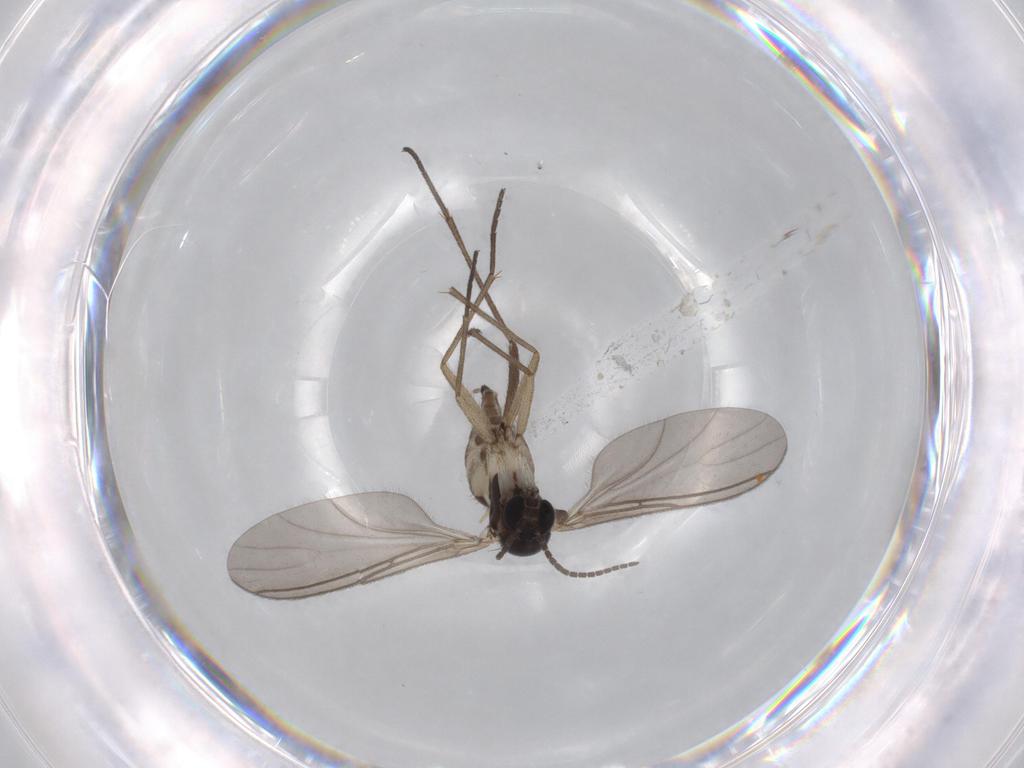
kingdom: Animalia
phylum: Arthropoda
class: Insecta
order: Diptera
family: Sciaridae
